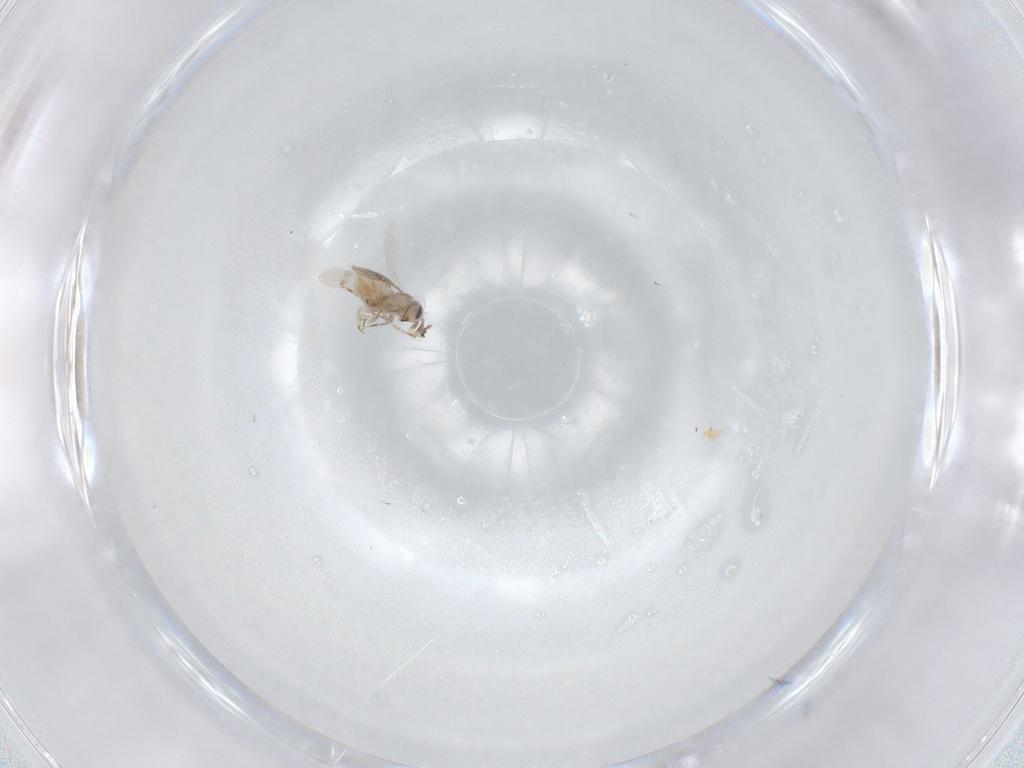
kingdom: Animalia
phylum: Arthropoda
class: Insecta
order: Hymenoptera
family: Aphelinidae
